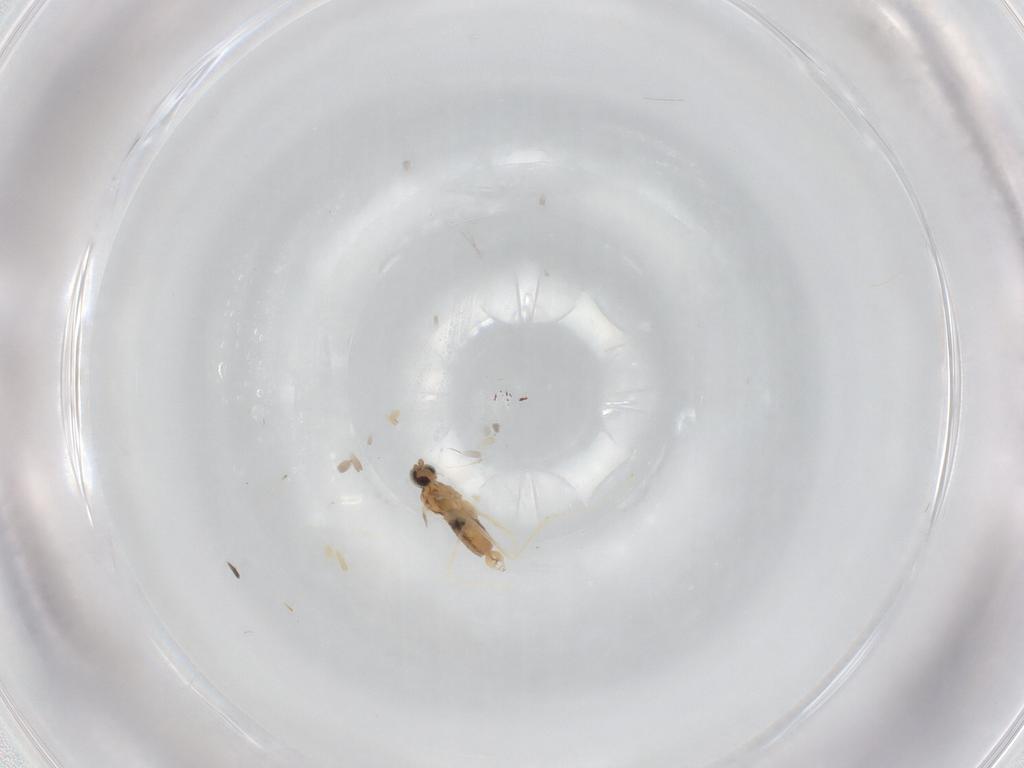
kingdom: Animalia
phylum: Arthropoda
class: Insecta
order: Diptera
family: Cecidomyiidae
